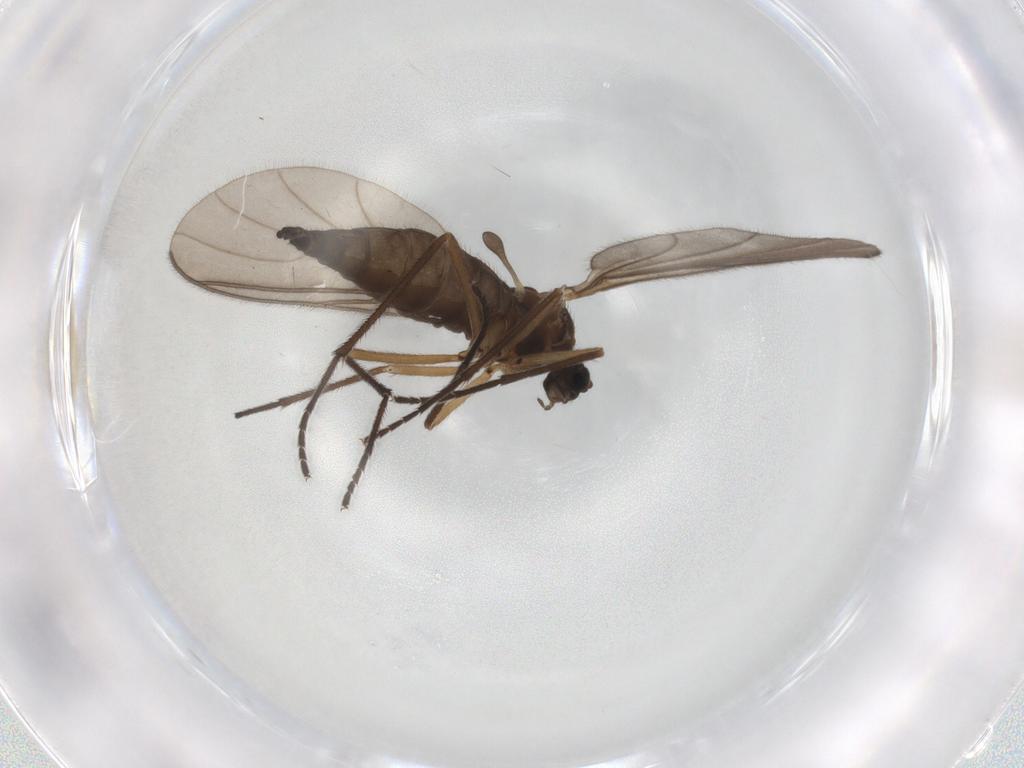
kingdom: Animalia
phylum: Arthropoda
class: Insecta
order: Diptera
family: Sciaridae
